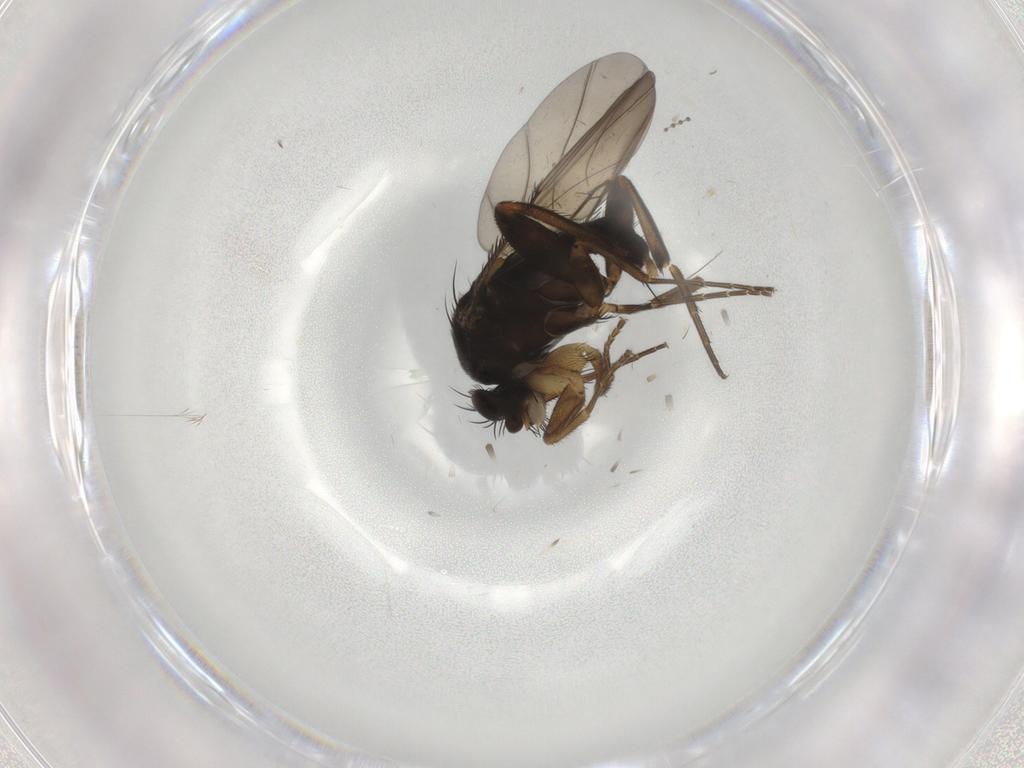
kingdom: Animalia
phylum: Arthropoda
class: Insecta
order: Diptera
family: Phoridae
